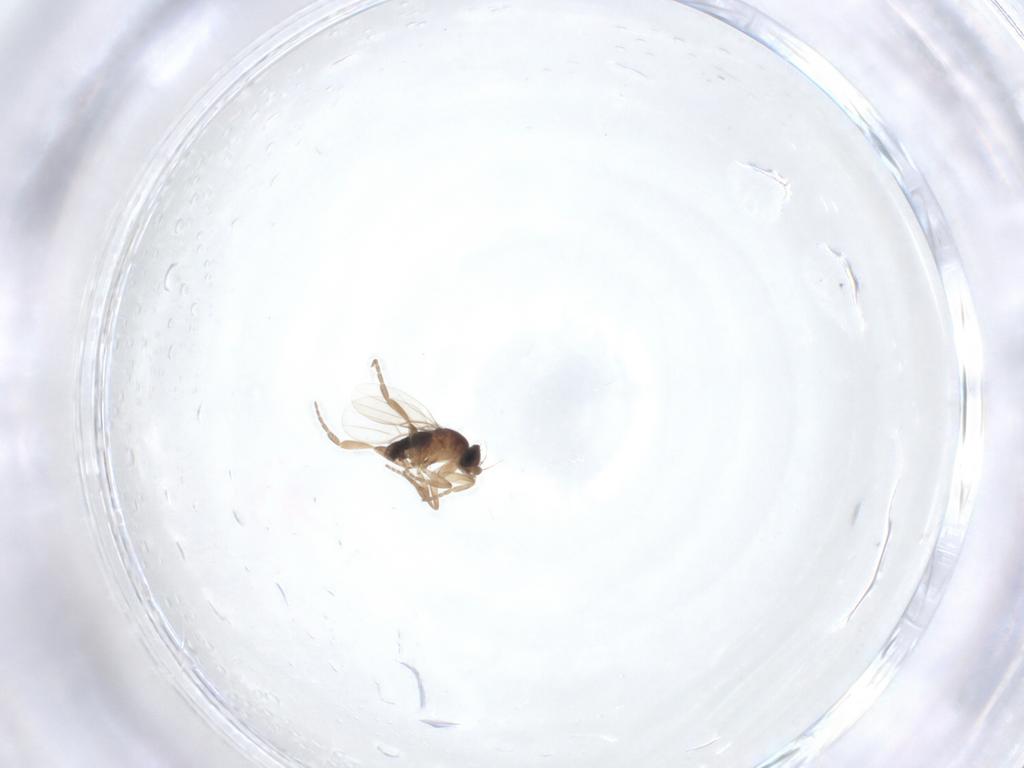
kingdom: Animalia
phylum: Arthropoda
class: Insecta
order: Diptera
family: Phoridae
